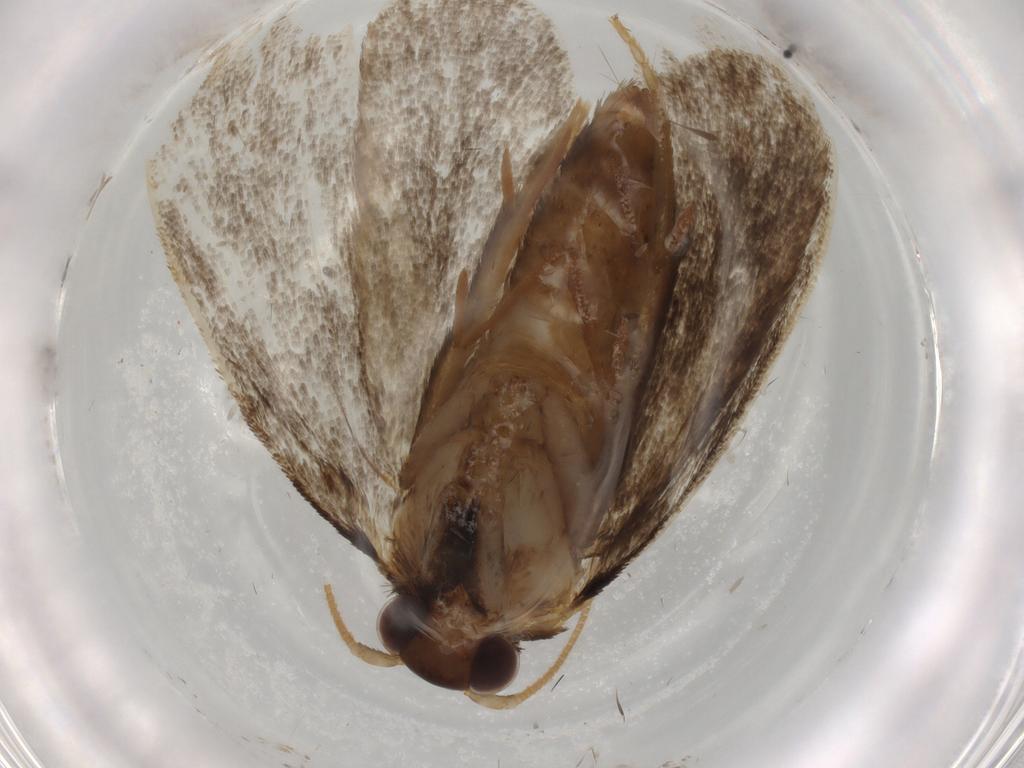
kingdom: Animalia
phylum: Arthropoda
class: Insecta
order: Lepidoptera
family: Tineidae
